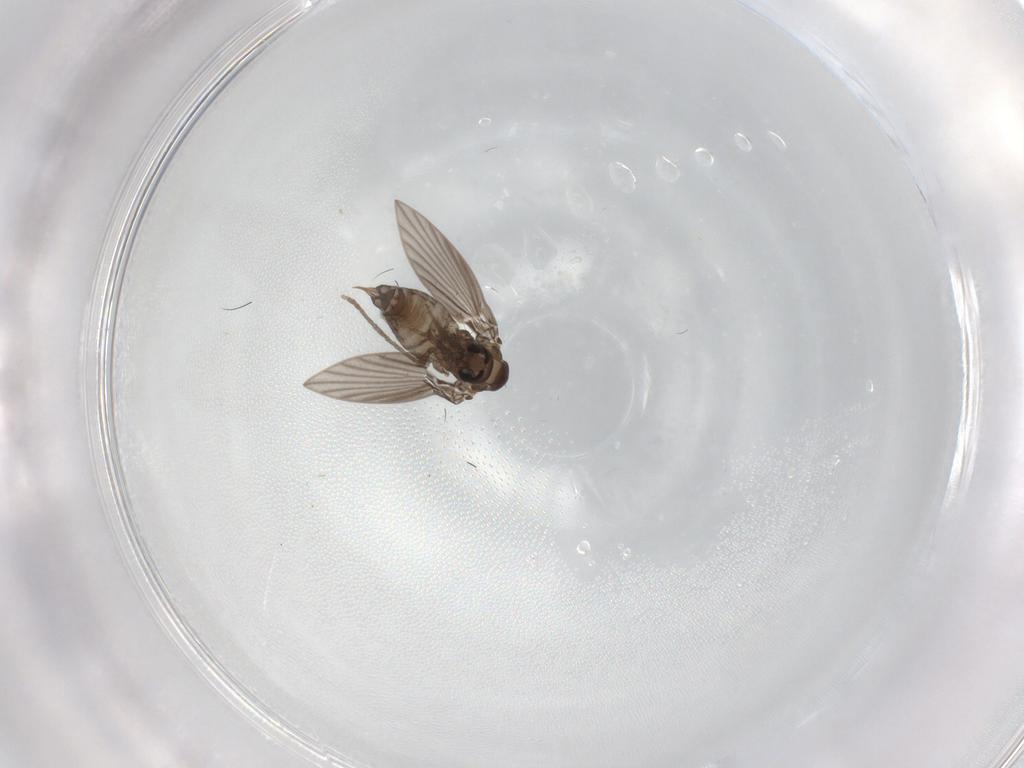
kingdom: Animalia
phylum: Arthropoda
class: Insecta
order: Diptera
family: Psychodidae
